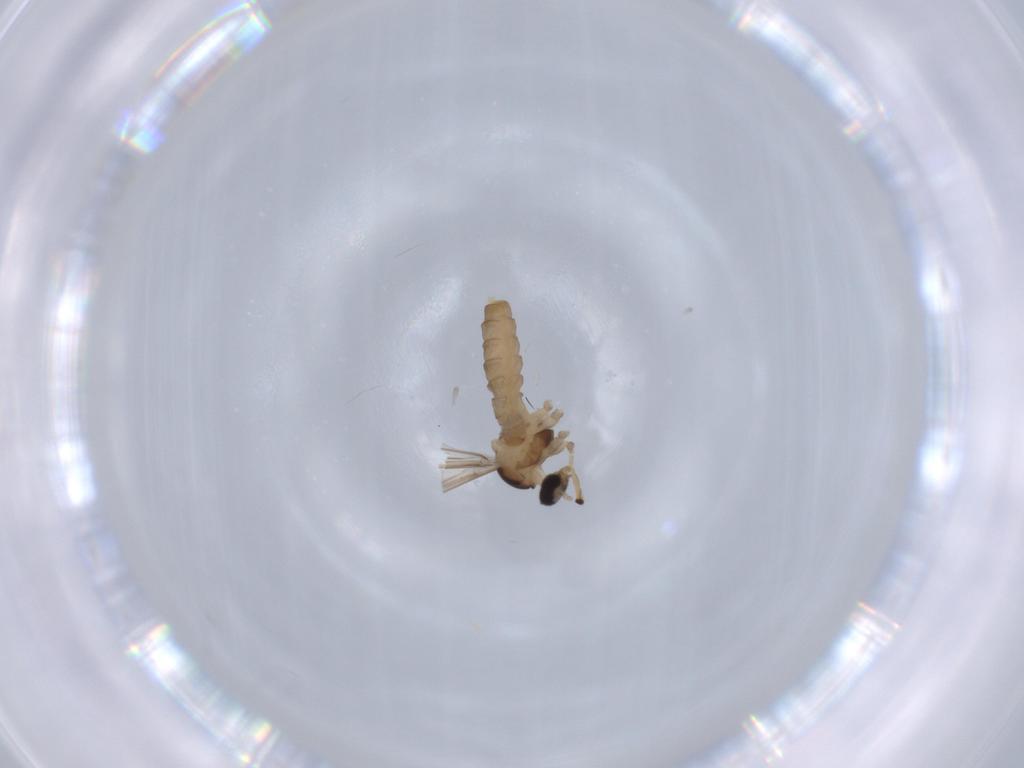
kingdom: Animalia
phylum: Arthropoda
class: Insecta
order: Diptera
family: Cecidomyiidae
